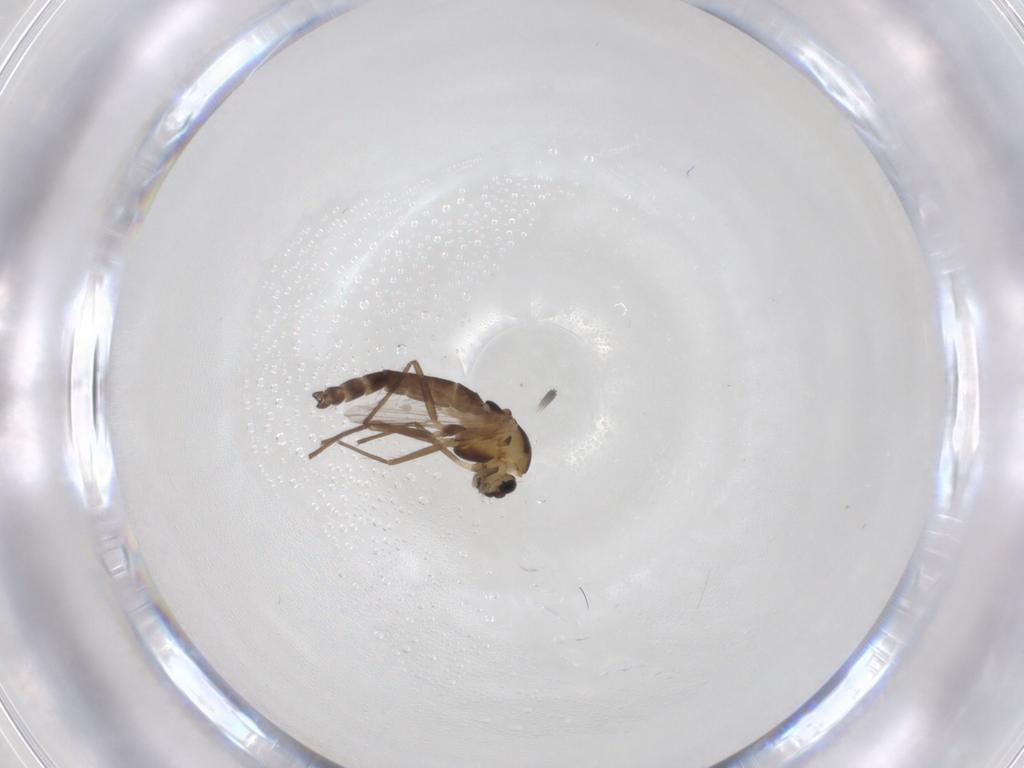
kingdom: Animalia
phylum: Arthropoda
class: Insecta
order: Diptera
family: Chironomidae
